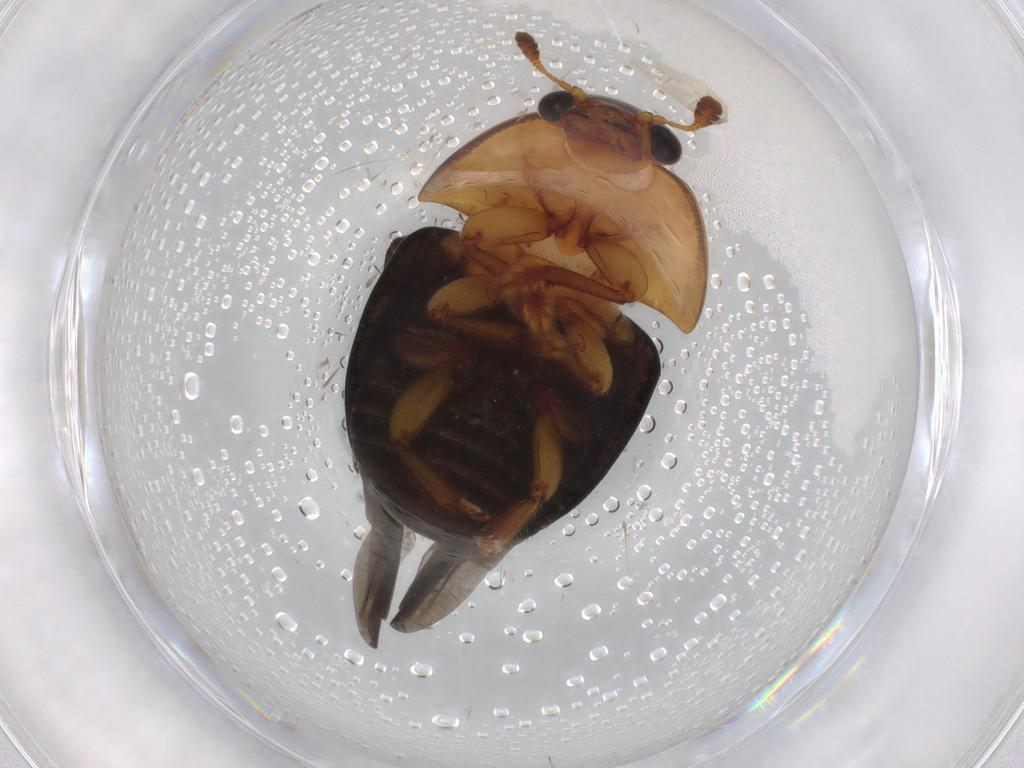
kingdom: Animalia
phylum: Arthropoda
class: Insecta
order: Coleoptera
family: Nitidulidae
